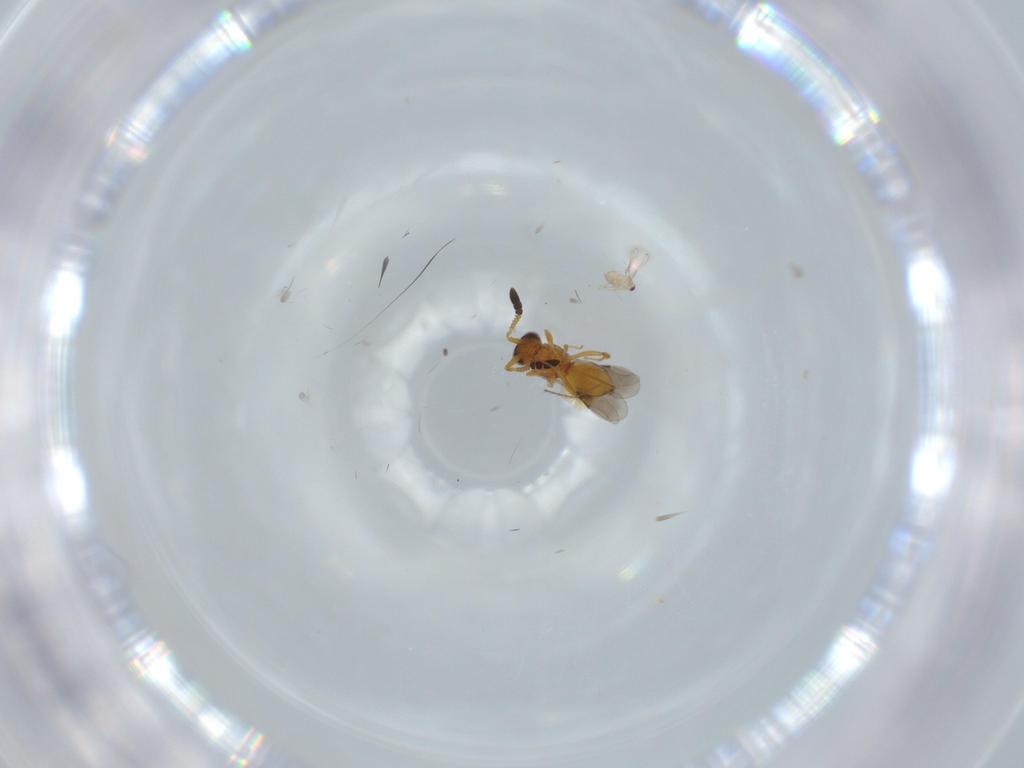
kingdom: Animalia
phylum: Arthropoda
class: Insecta
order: Hymenoptera
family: Mymaridae
